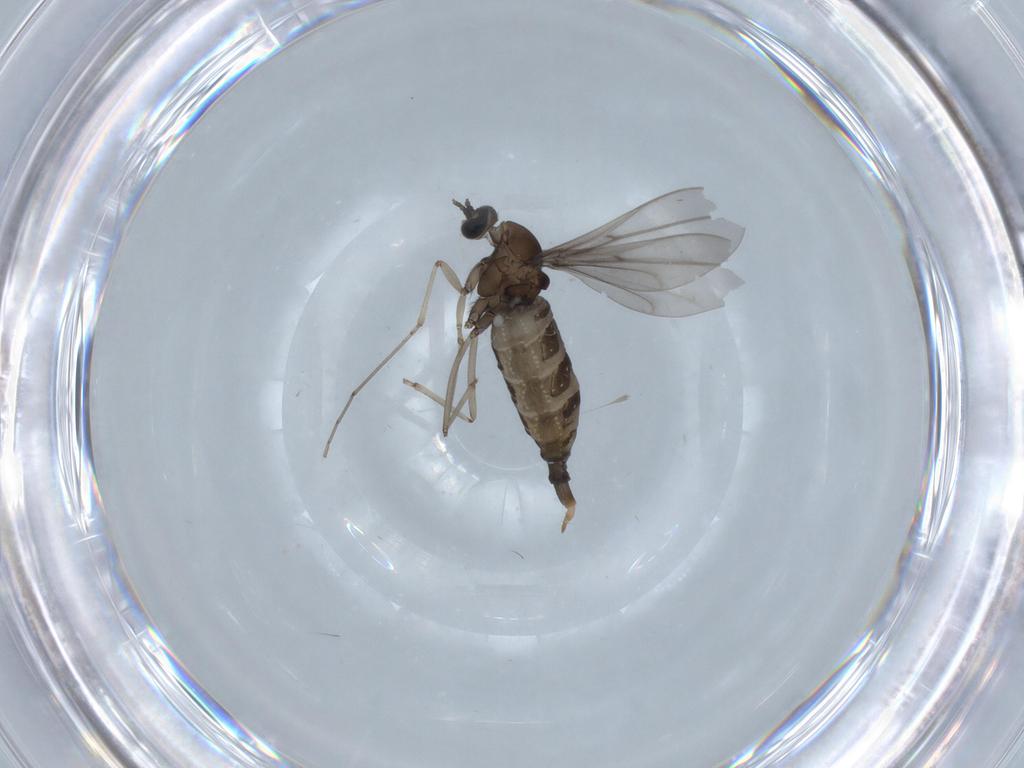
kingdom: Animalia
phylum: Arthropoda
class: Insecta
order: Diptera
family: Cecidomyiidae
